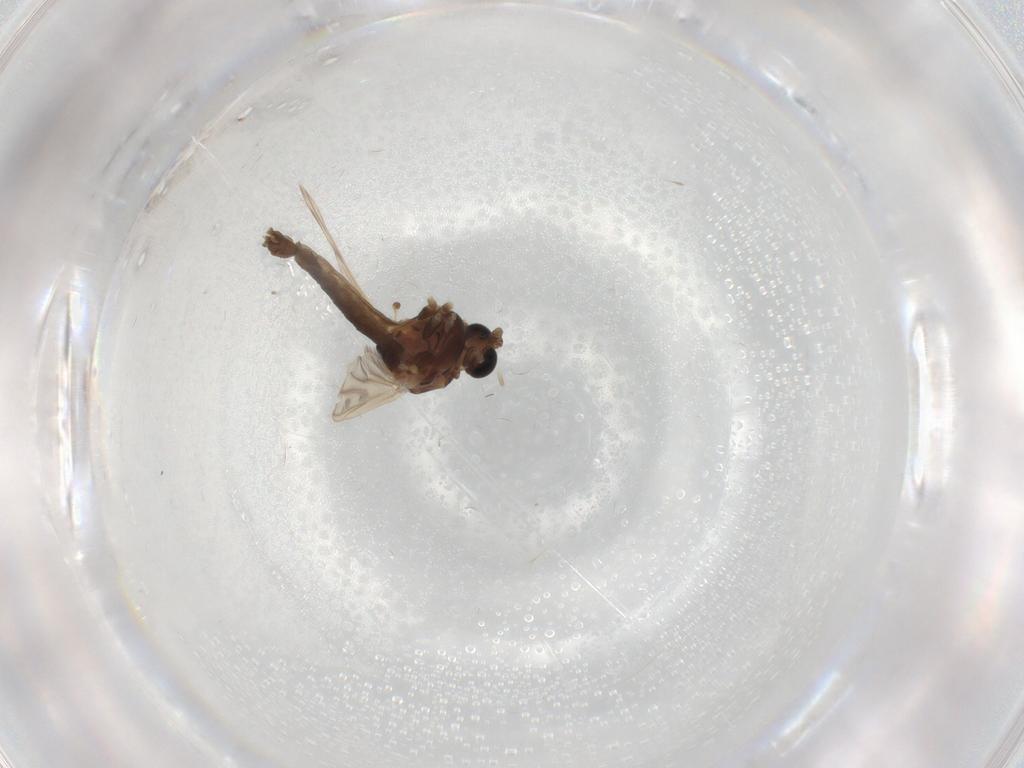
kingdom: Animalia
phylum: Arthropoda
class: Insecta
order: Diptera
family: Chironomidae
